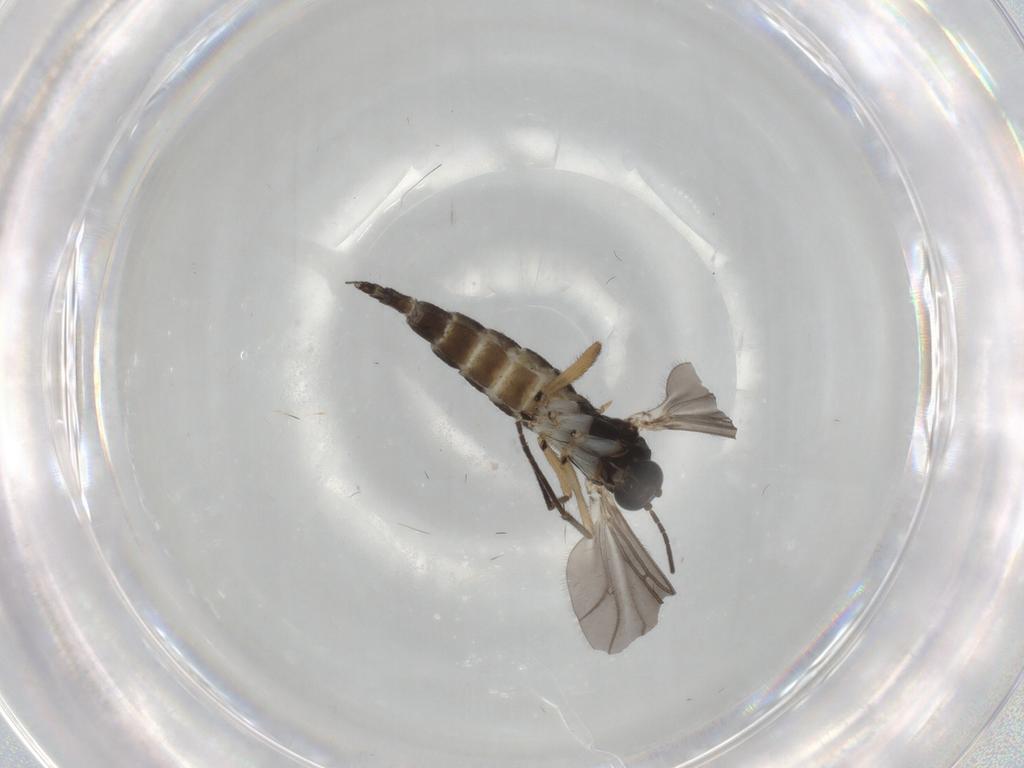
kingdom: Animalia
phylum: Arthropoda
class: Insecta
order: Diptera
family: Sciaridae
